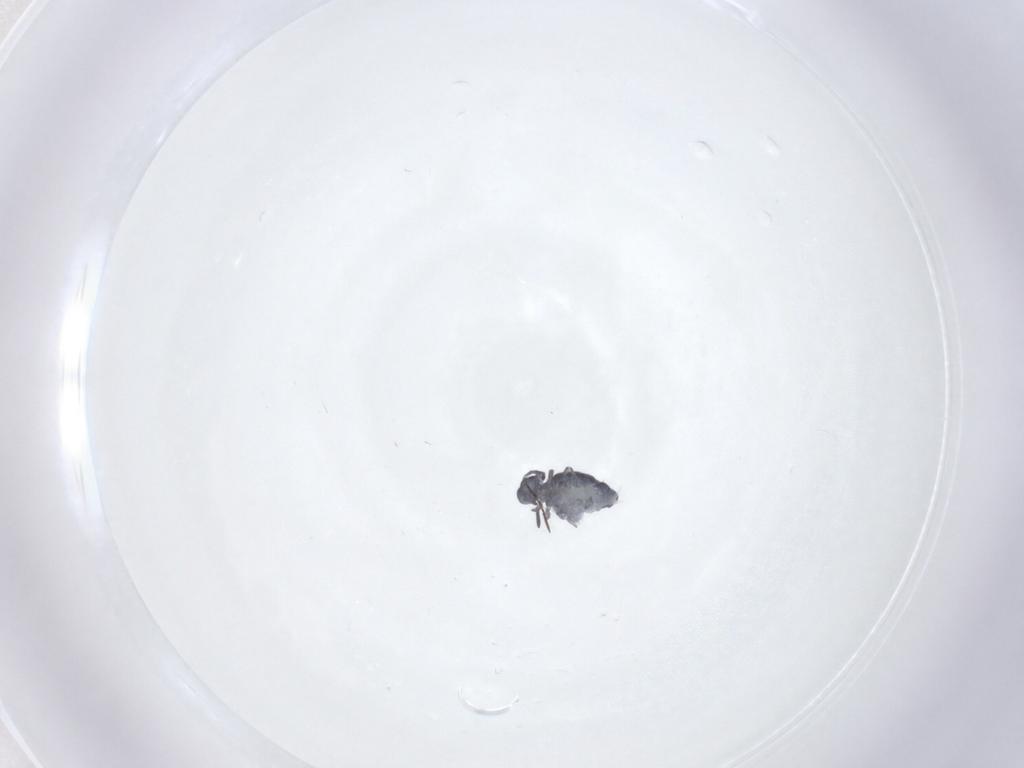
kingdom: Animalia
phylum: Arthropoda
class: Collembola
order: Symphypleona
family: Katiannidae
